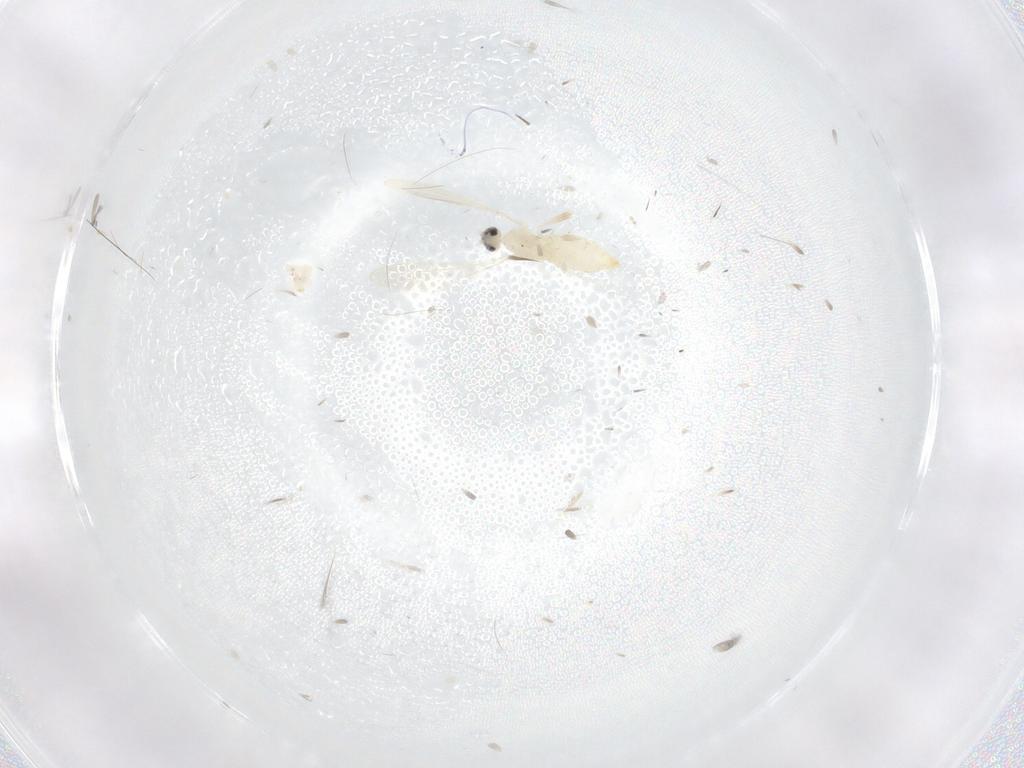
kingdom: Animalia
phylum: Arthropoda
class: Insecta
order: Diptera
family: Cecidomyiidae
